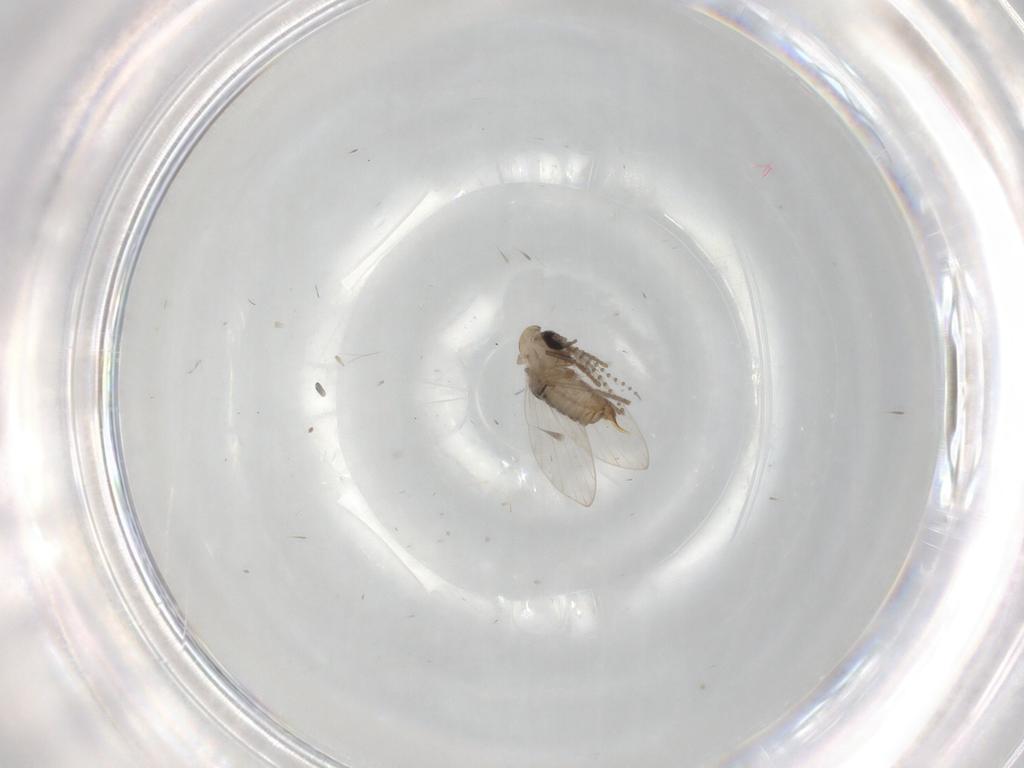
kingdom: Animalia
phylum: Arthropoda
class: Insecta
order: Diptera
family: Psychodidae
